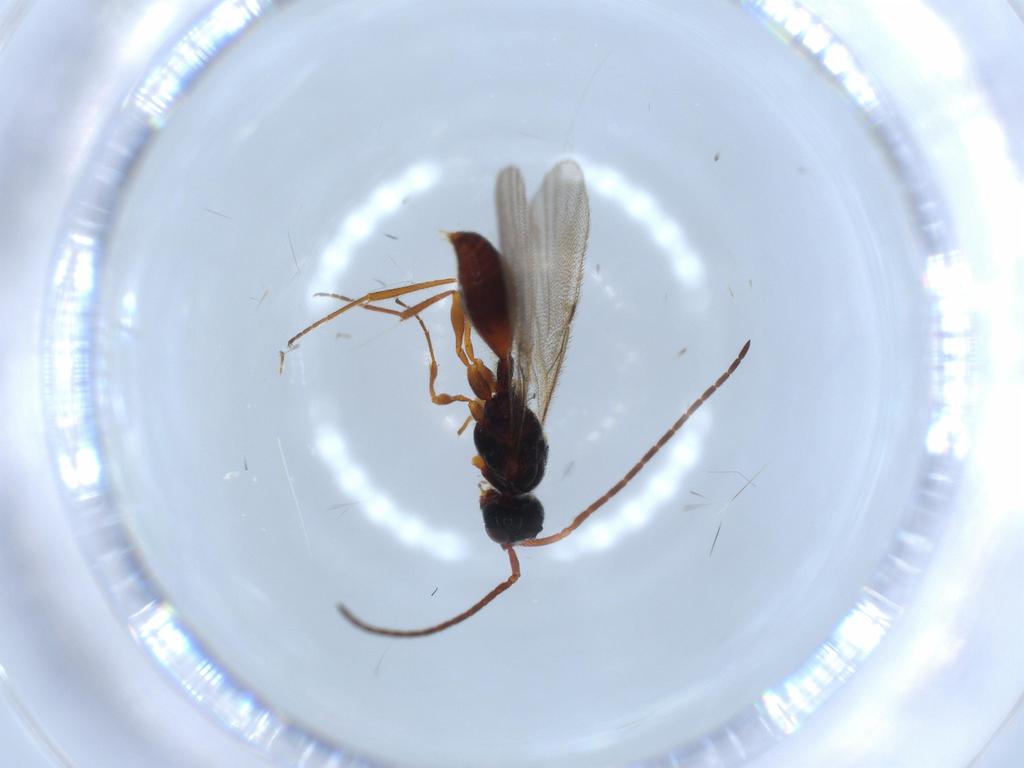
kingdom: Animalia
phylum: Arthropoda
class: Insecta
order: Hymenoptera
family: Pteromalidae
